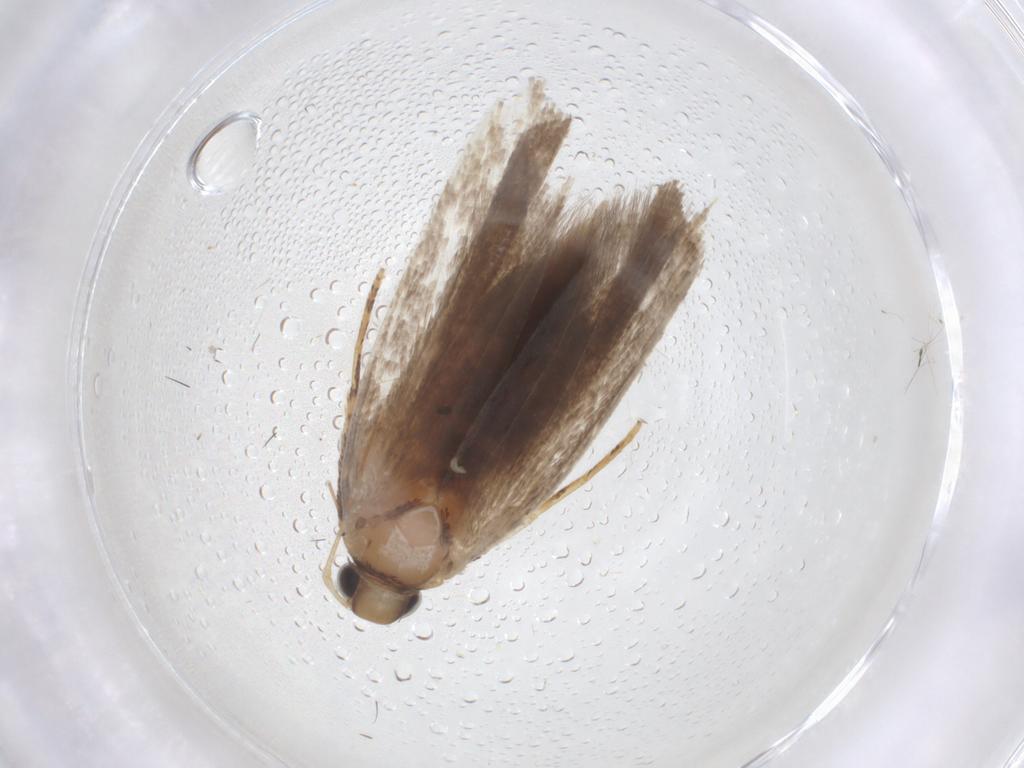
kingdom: Animalia
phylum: Arthropoda
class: Insecta
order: Lepidoptera
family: Gelechiidae
